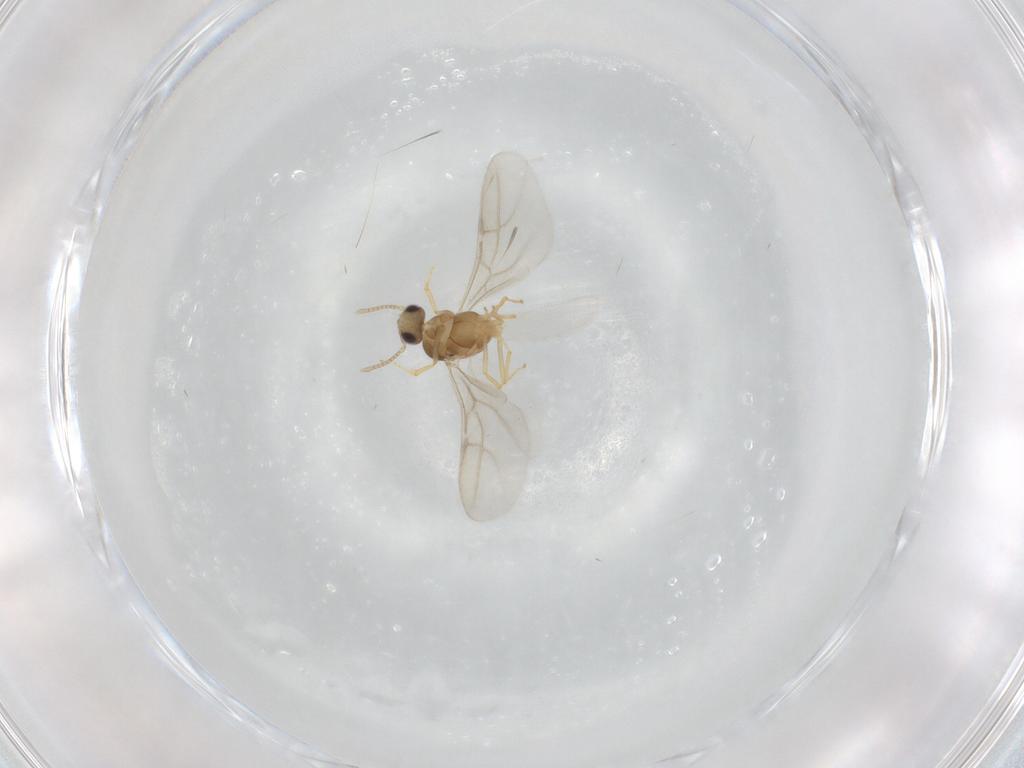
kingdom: Animalia
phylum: Arthropoda
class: Insecta
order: Hymenoptera
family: Formicidae
